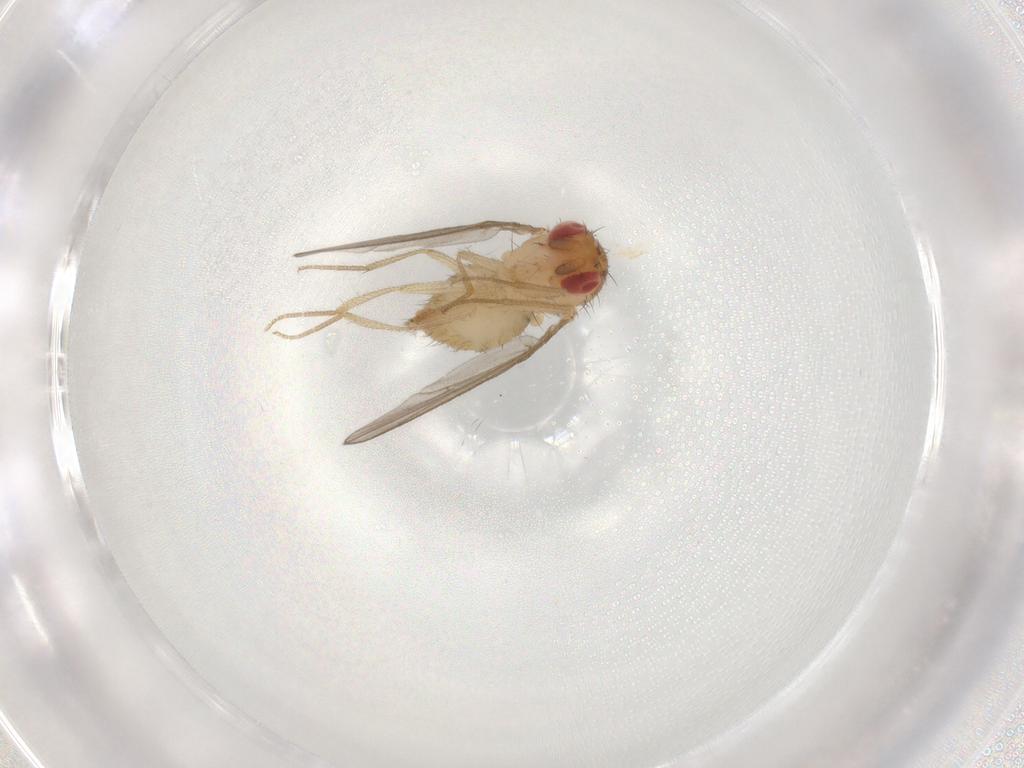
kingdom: Animalia
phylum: Arthropoda
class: Insecta
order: Diptera
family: Drosophilidae
